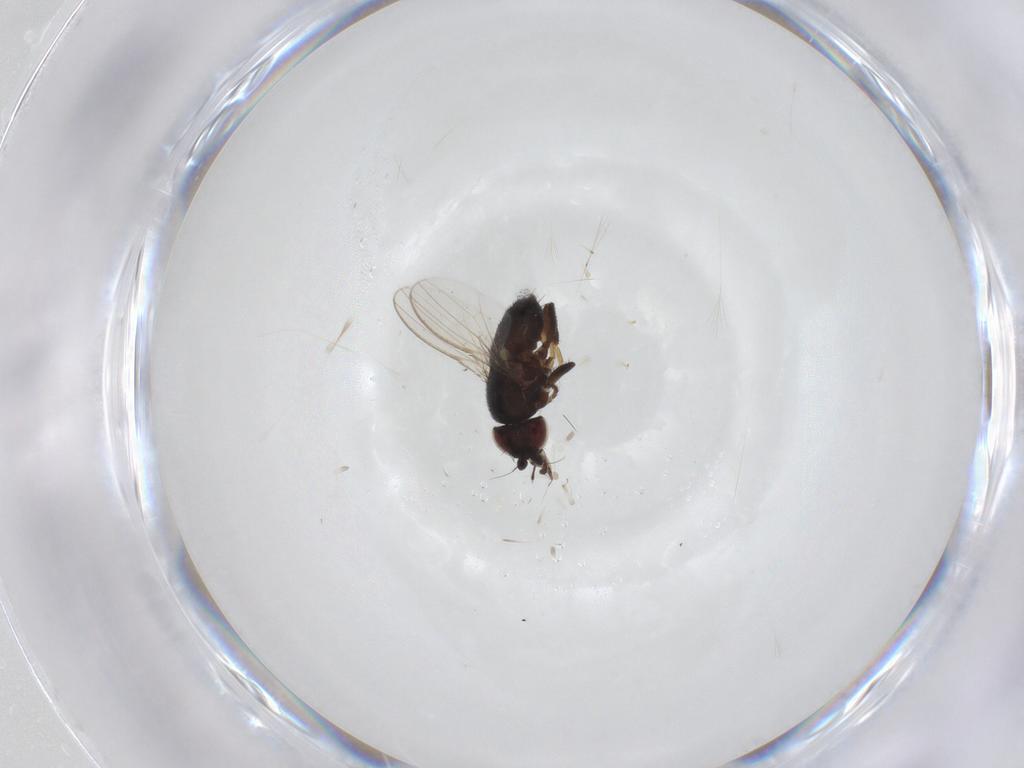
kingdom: Animalia
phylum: Arthropoda
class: Insecta
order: Diptera
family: Milichiidae
